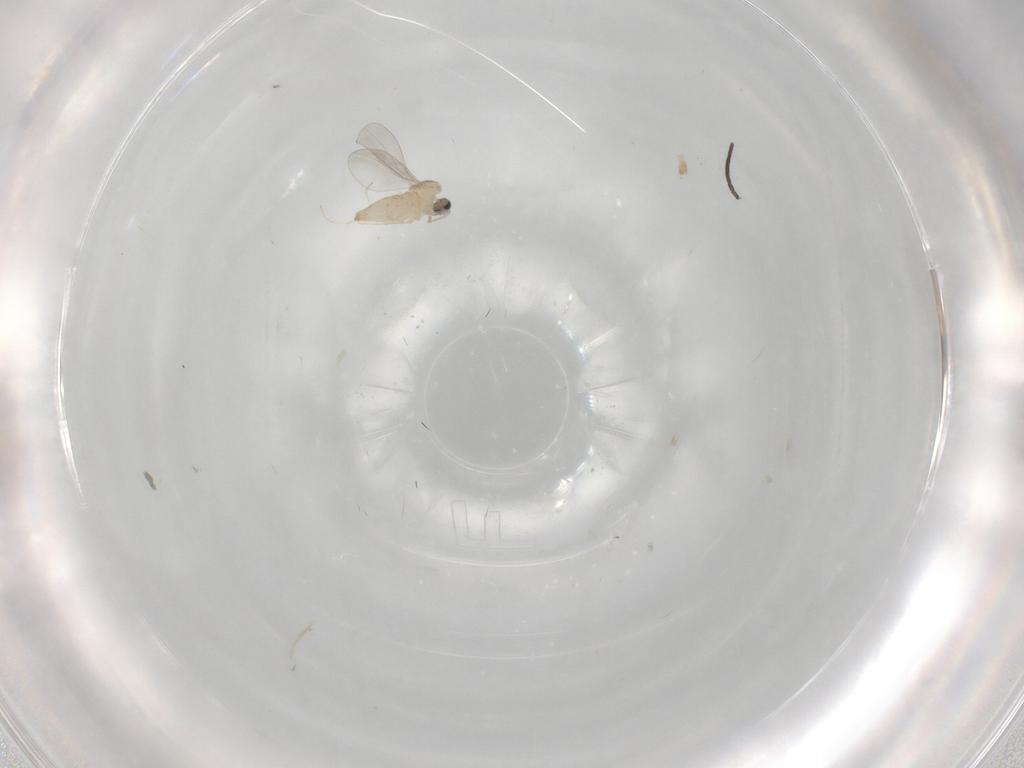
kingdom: Animalia
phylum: Arthropoda
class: Insecta
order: Diptera
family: Cecidomyiidae
